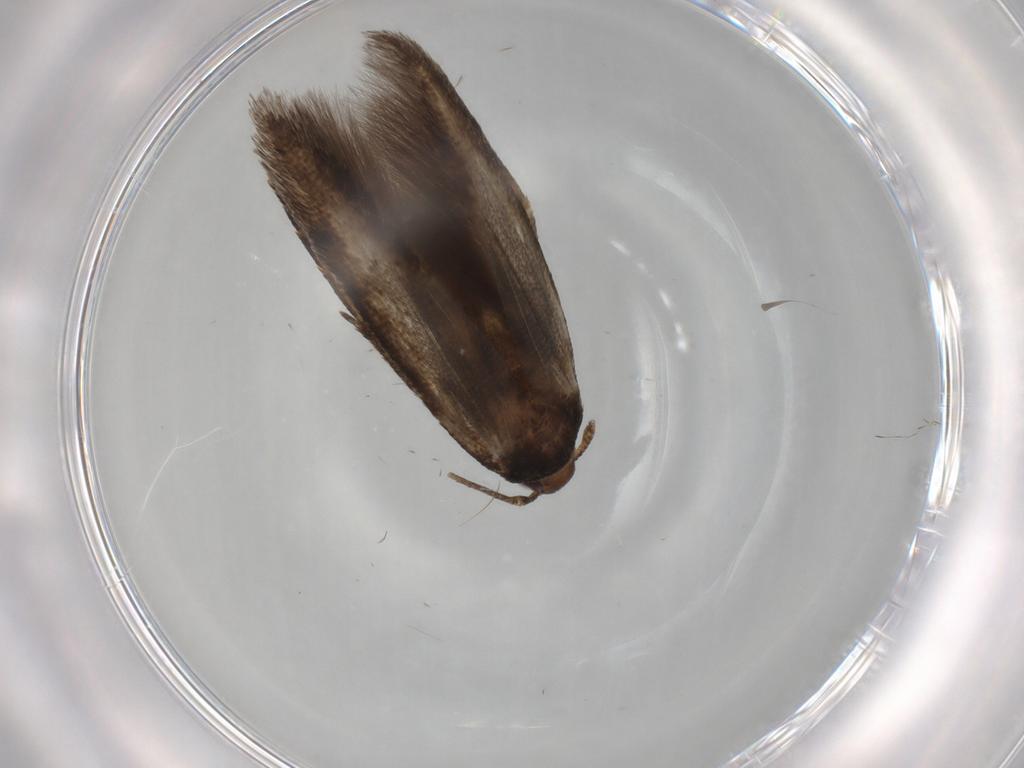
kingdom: Animalia
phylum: Arthropoda
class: Insecta
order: Lepidoptera
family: Cosmopterigidae
